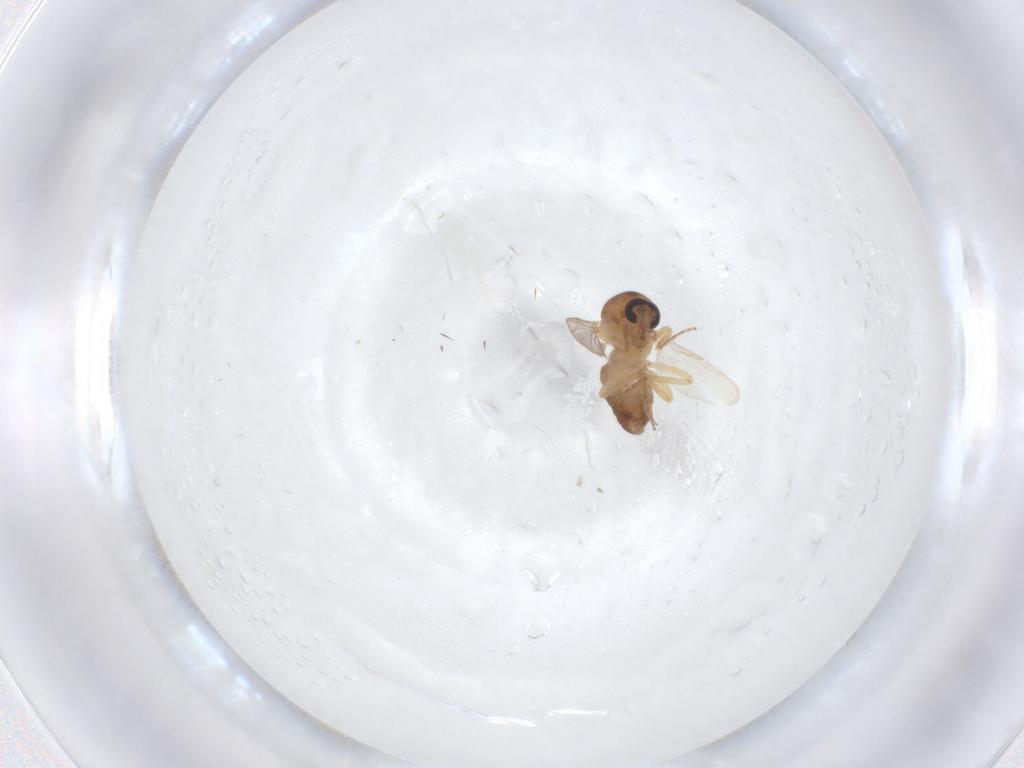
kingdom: Animalia
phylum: Arthropoda
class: Insecta
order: Diptera
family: Ceratopogonidae
